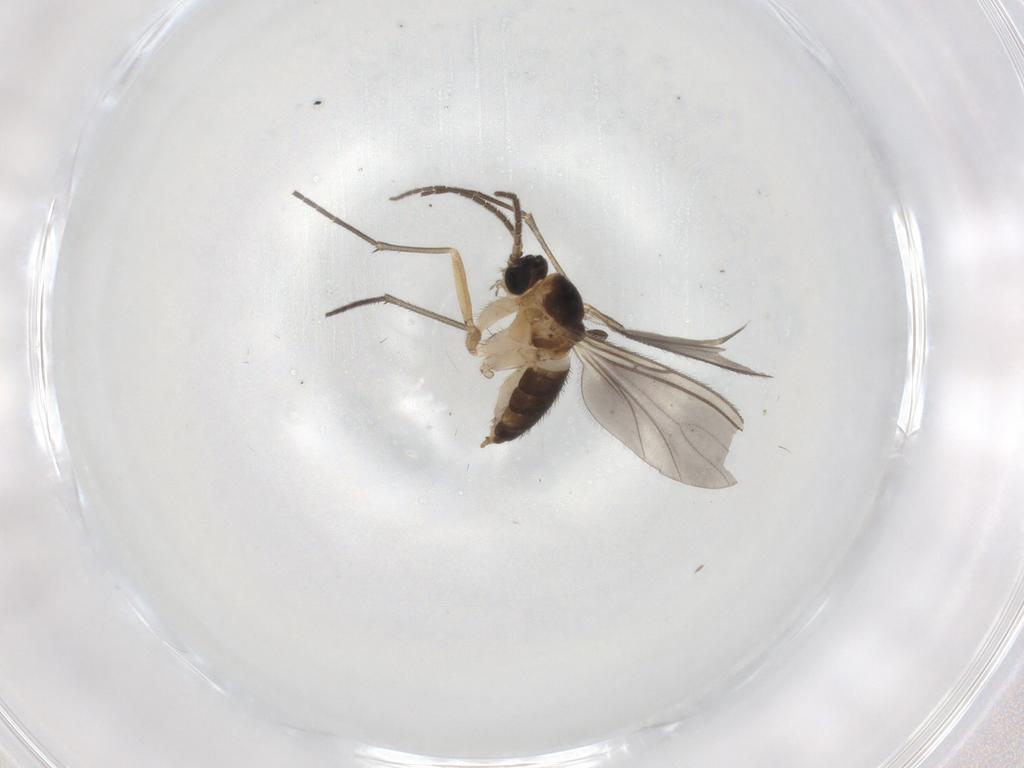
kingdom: Animalia
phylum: Arthropoda
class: Insecta
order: Diptera
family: Sciaridae
